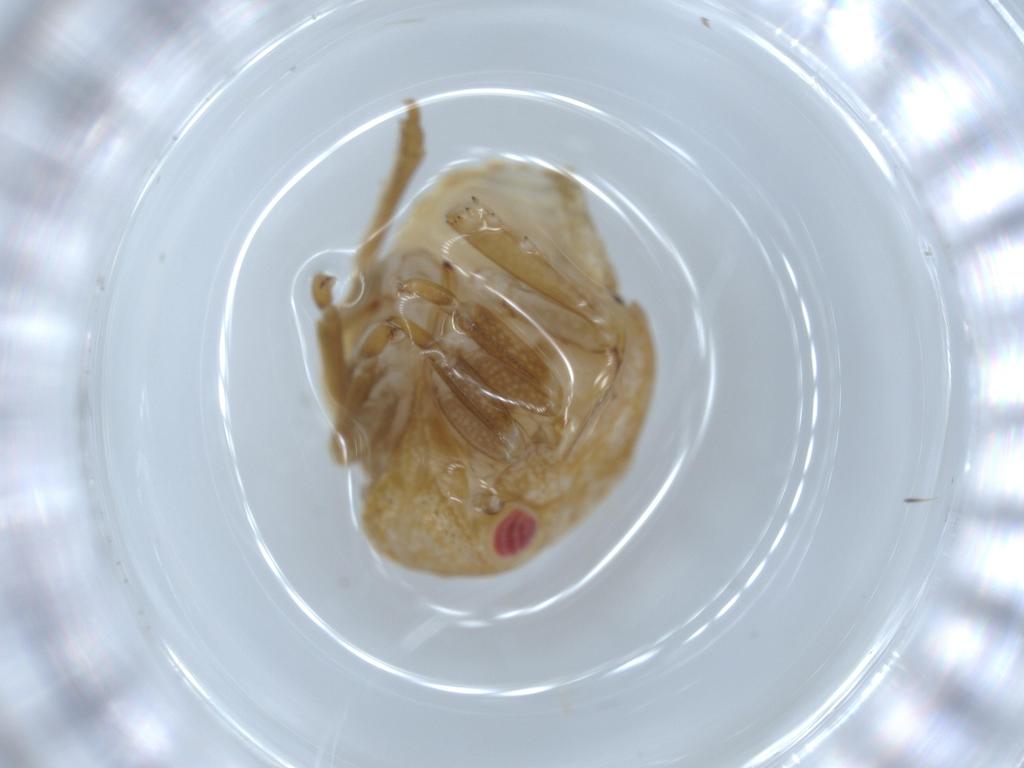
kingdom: Animalia
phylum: Arthropoda
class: Insecta
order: Hemiptera
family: Acanaloniidae
